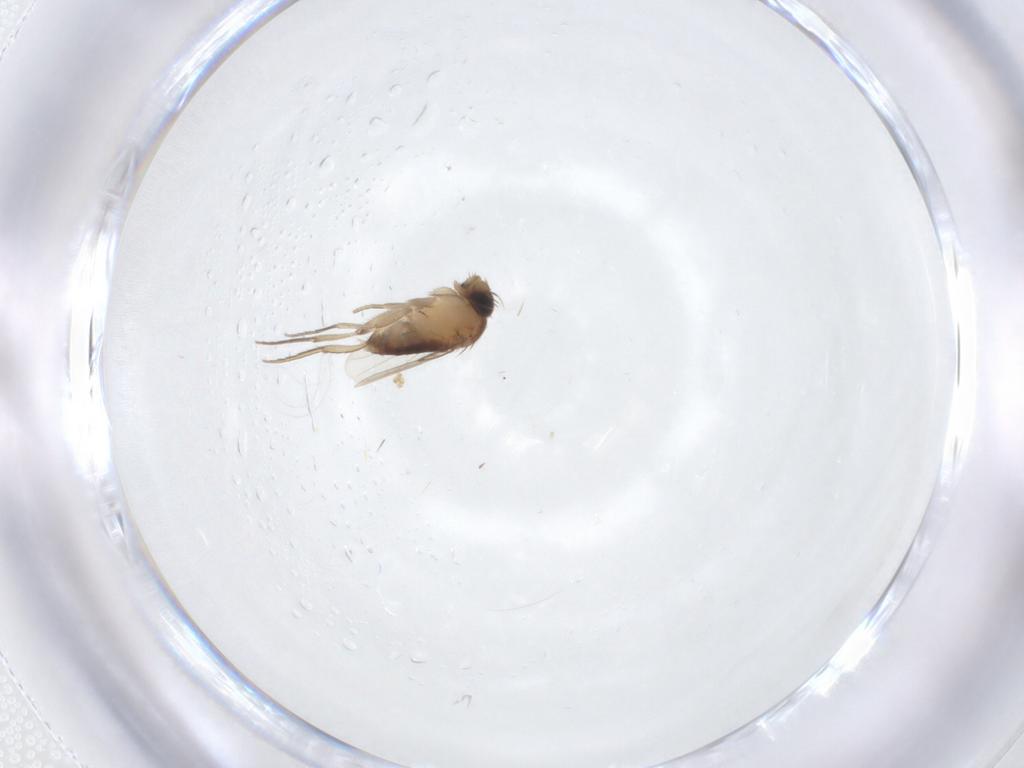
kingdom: Animalia
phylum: Arthropoda
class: Insecta
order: Diptera
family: Phoridae
